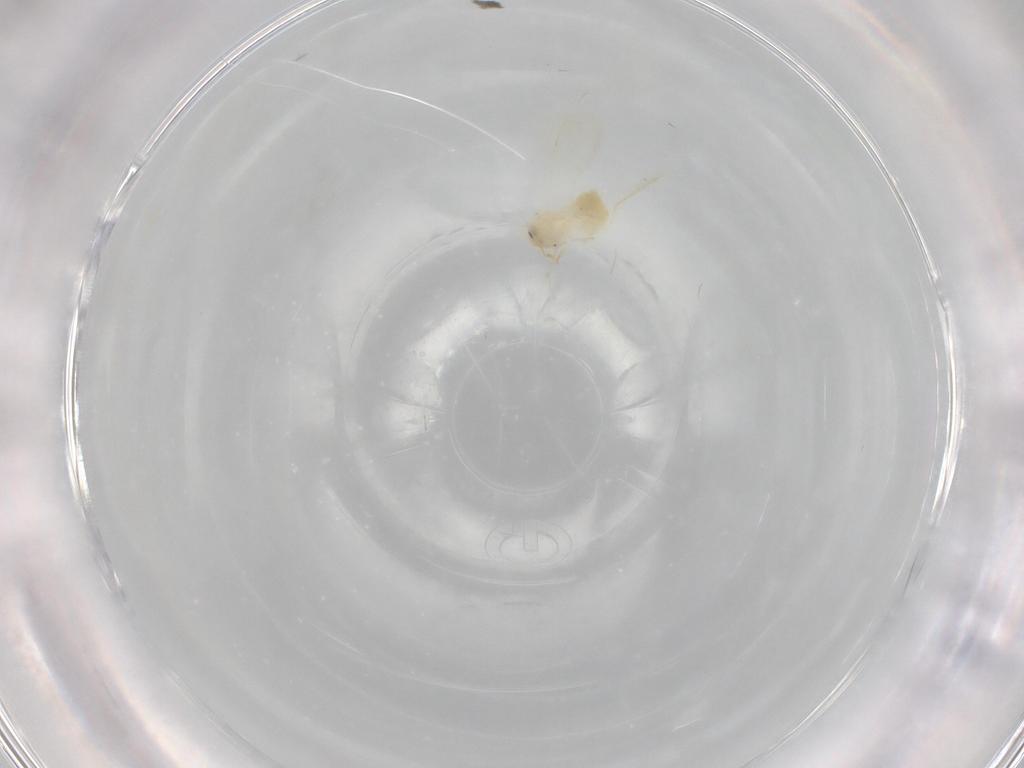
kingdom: Animalia
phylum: Arthropoda
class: Insecta
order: Hemiptera
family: Aleyrodidae
